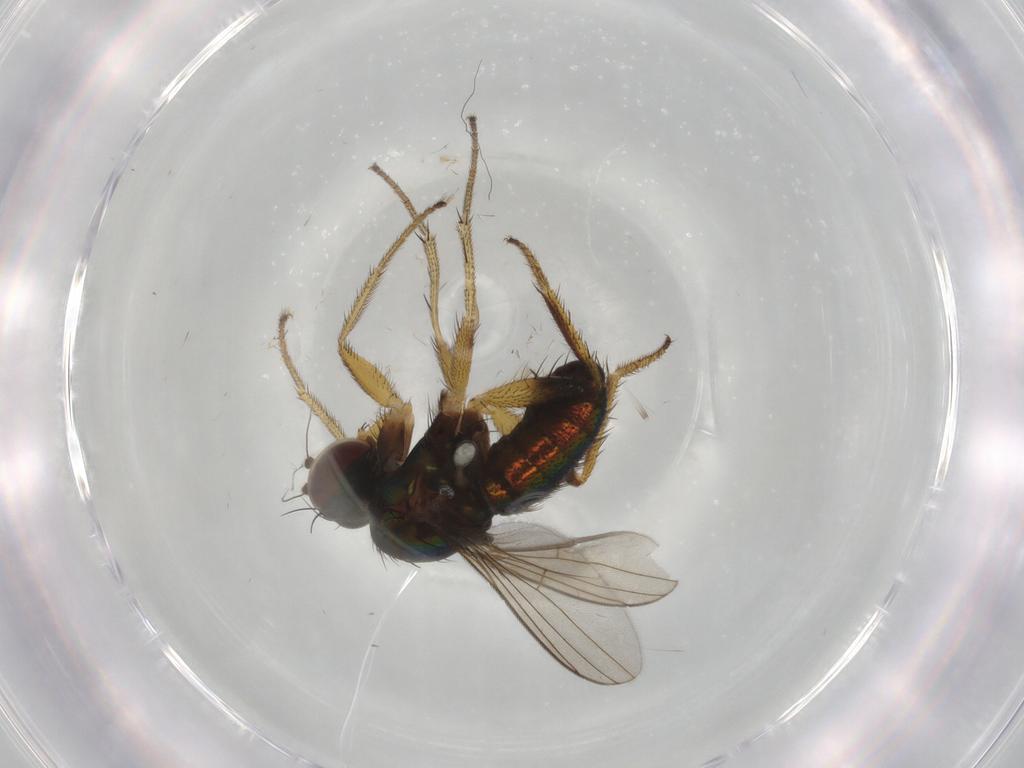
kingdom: Animalia
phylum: Arthropoda
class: Insecta
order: Diptera
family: Dolichopodidae
